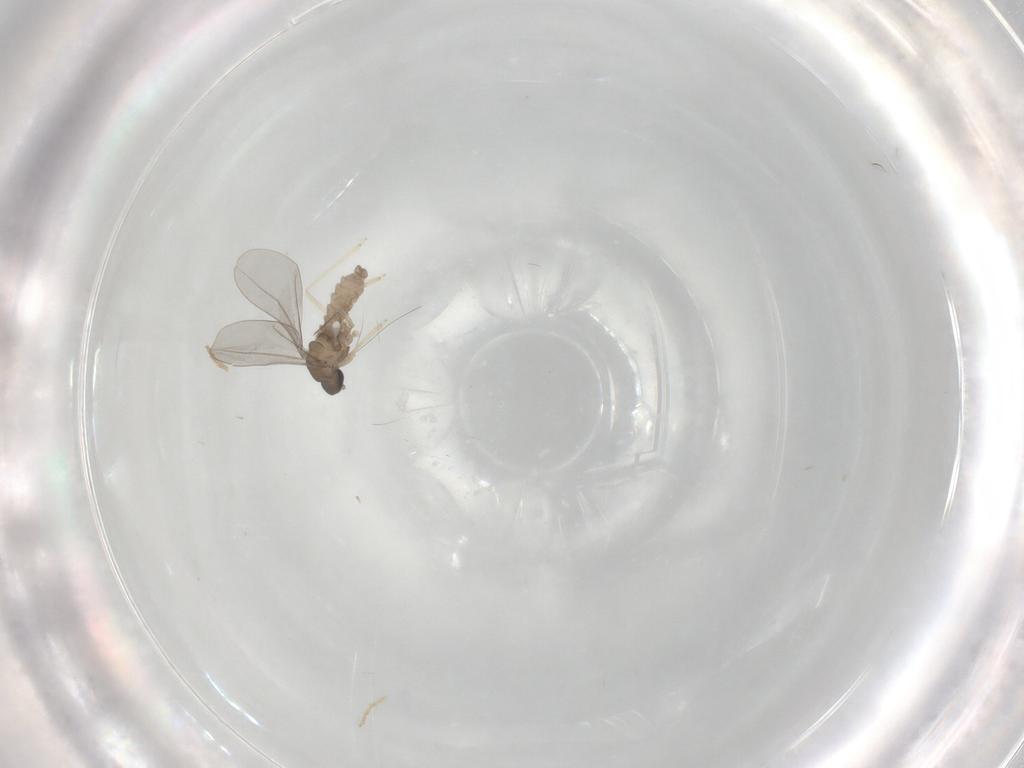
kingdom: Animalia
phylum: Arthropoda
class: Insecta
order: Diptera
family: Chironomidae
